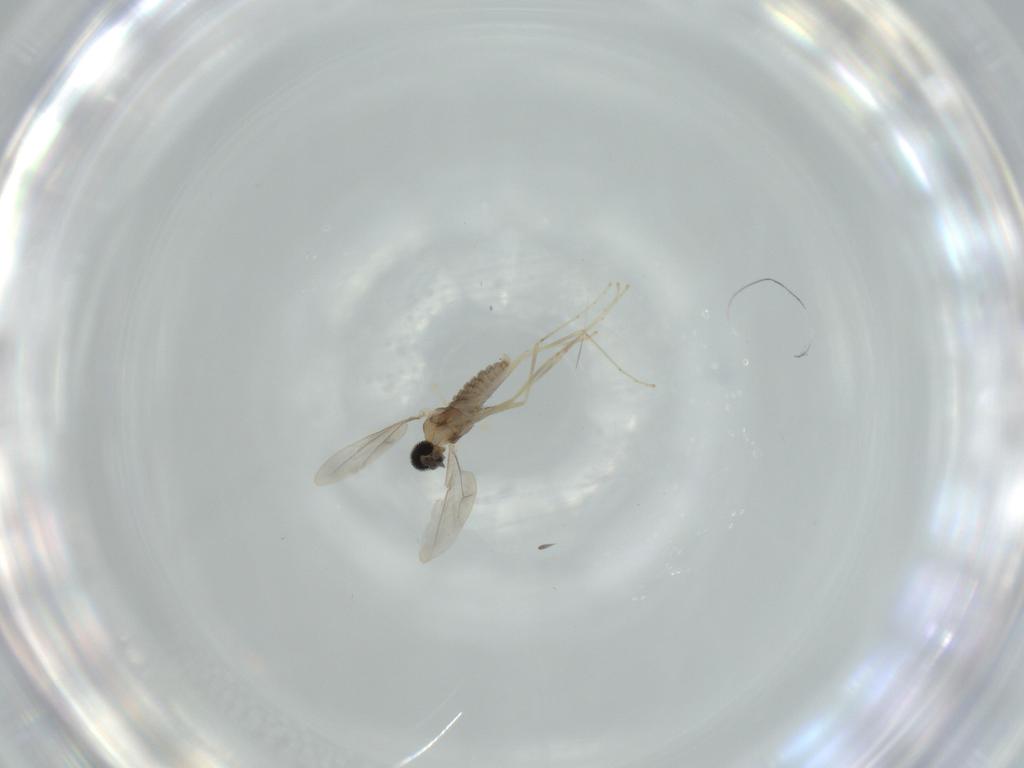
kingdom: Animalia
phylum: Arthropoda
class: Insecta
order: Diptera
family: Cecidomyiidae
